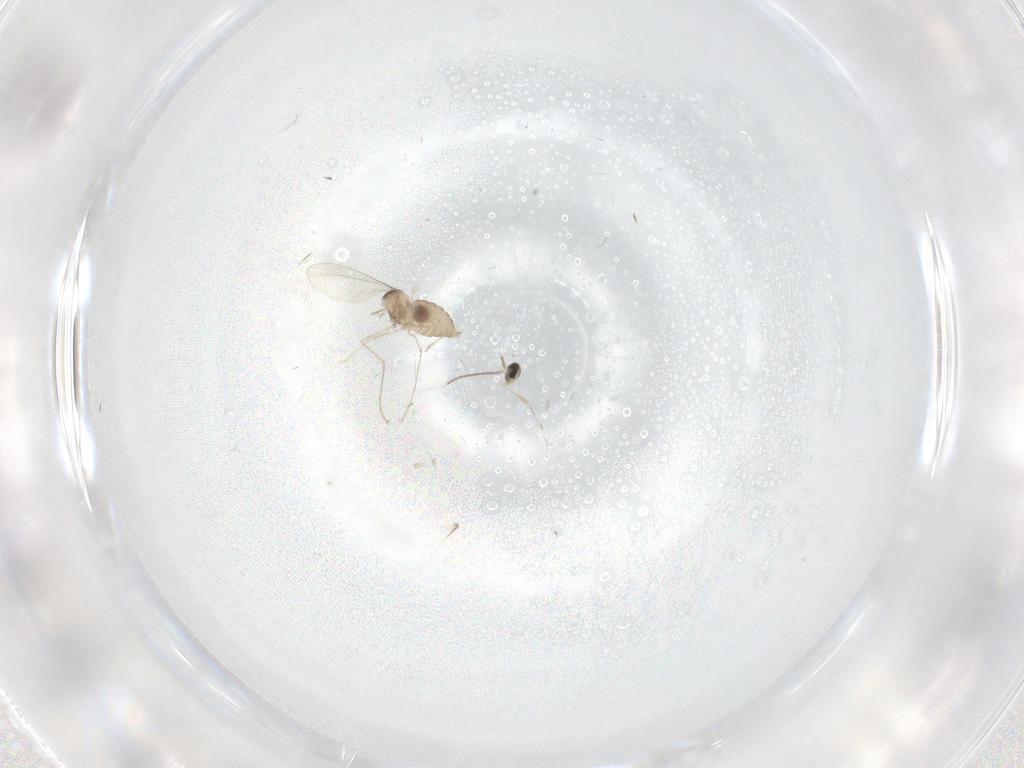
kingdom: Animalia
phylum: Arthropoda
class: Insecta
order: Diptera
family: Cecidomyiidae
